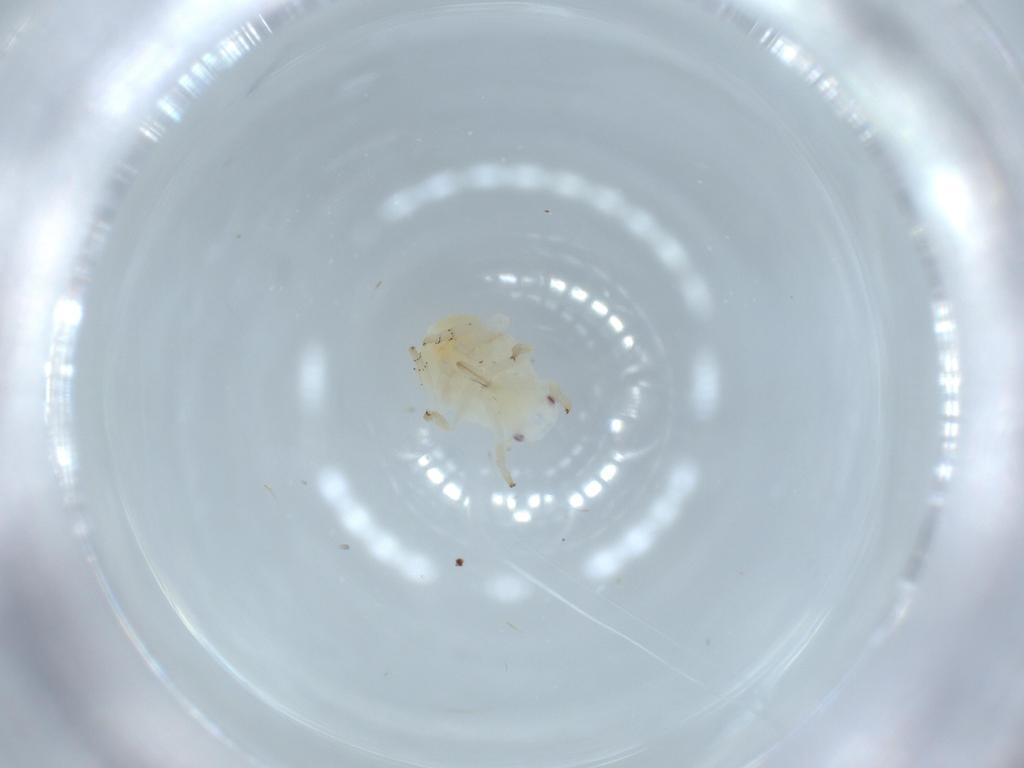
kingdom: Animalia
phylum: Arthropoda
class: Insecta
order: Hemiptera
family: Flatidae
